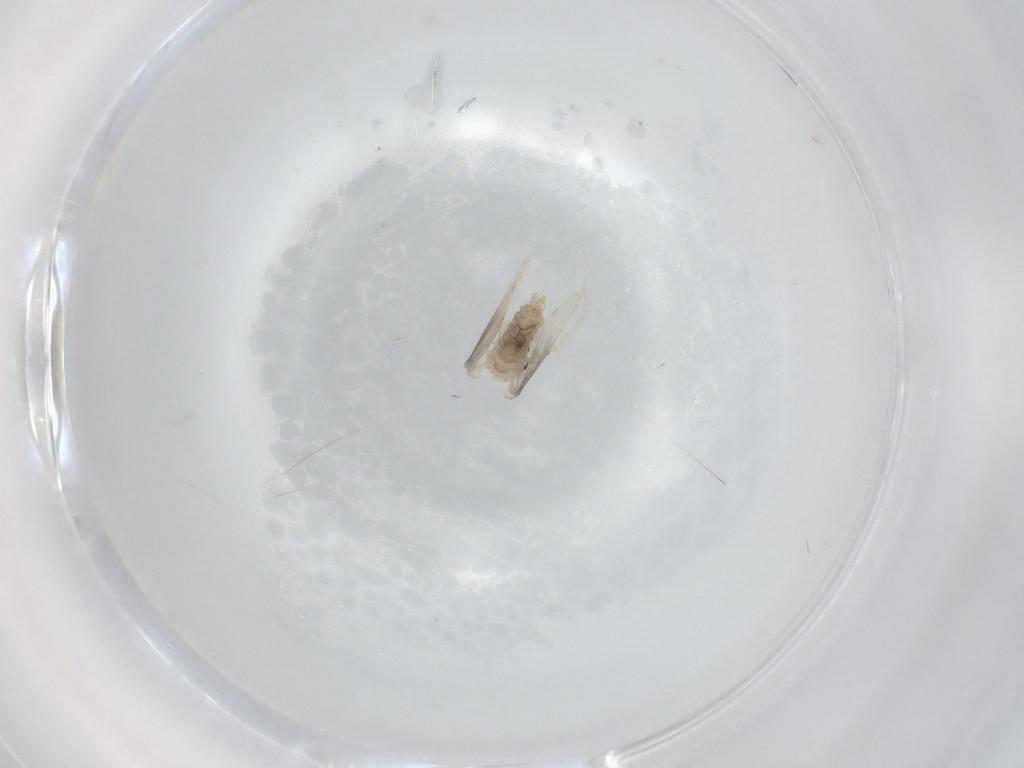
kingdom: Animalia
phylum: Arthropoda
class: Insecta
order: Diptera
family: Psychodidae
